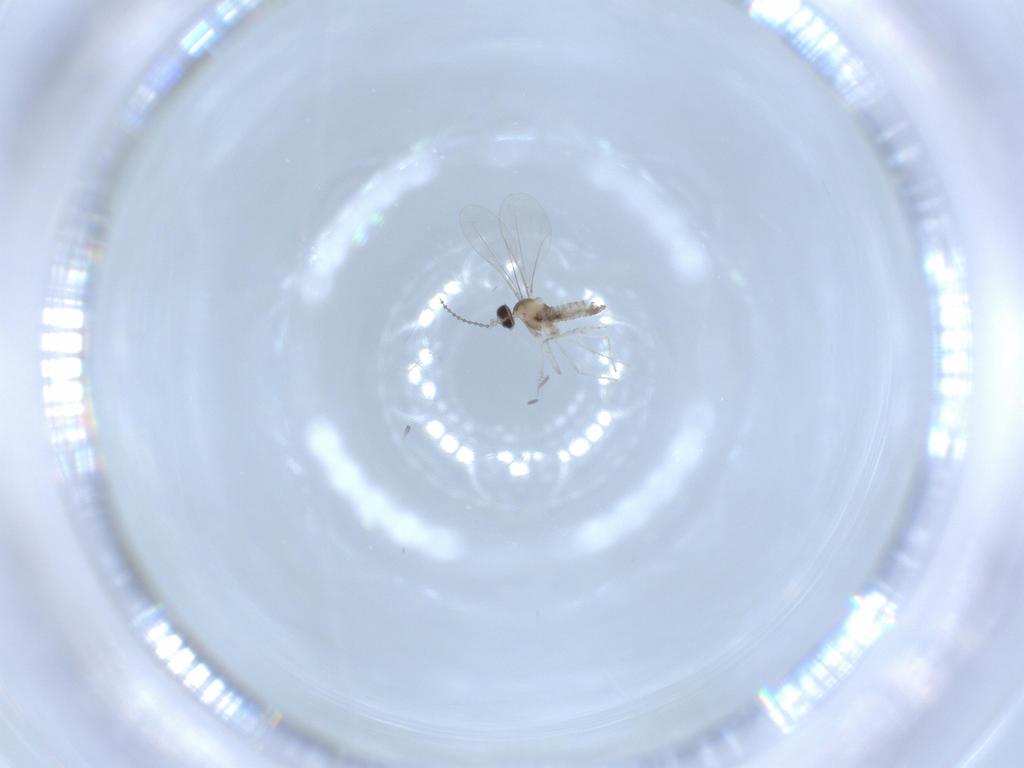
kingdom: Animalia
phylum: Arthropoda
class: Insecta
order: Diptera
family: Cecidomyiidae
